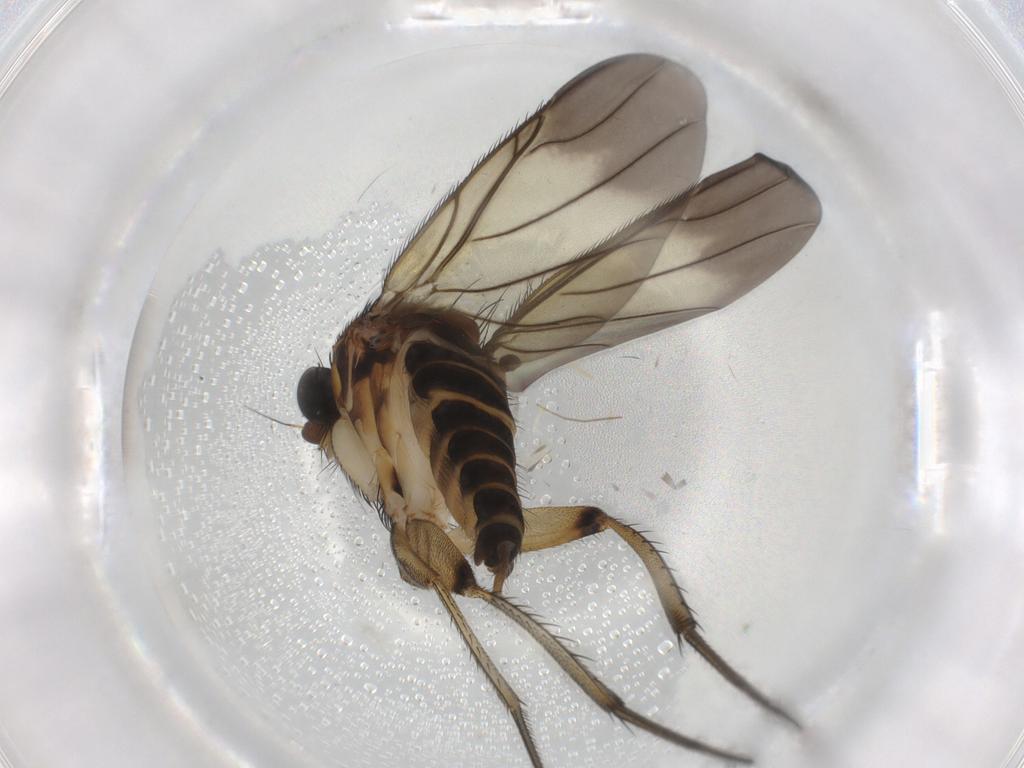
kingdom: Animalia
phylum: Arthropoda
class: Insecta
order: Diptera
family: Phoridae
